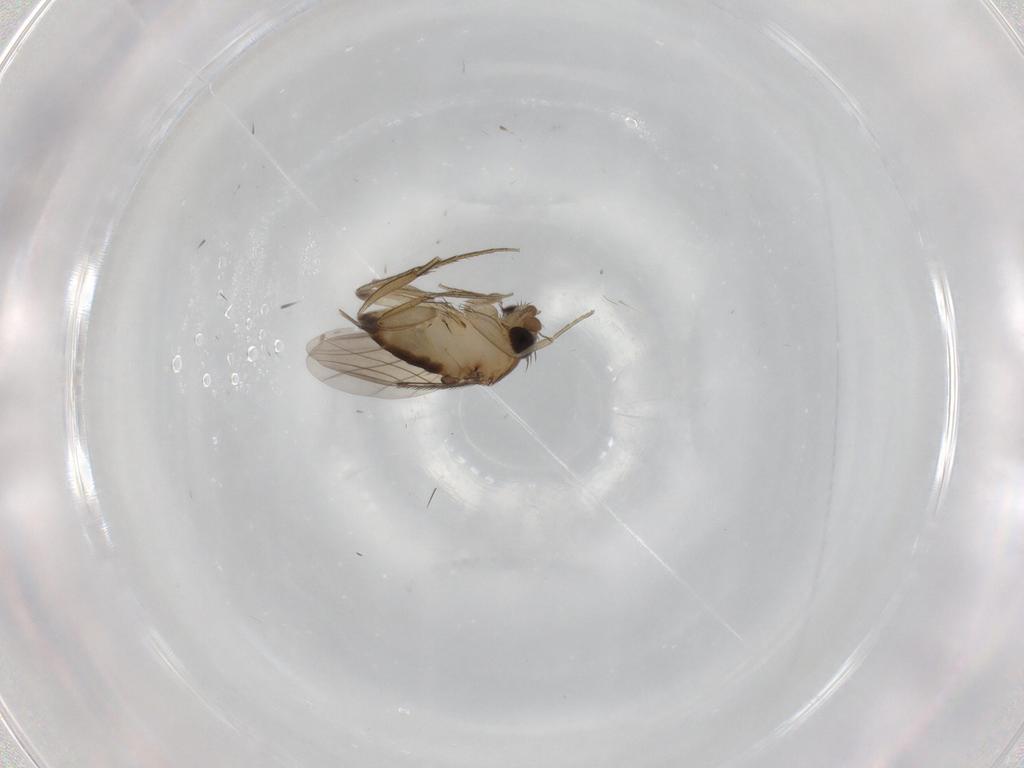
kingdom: Animalia
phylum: Arthropoda
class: Insecta
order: Diptera
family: Phoridae
